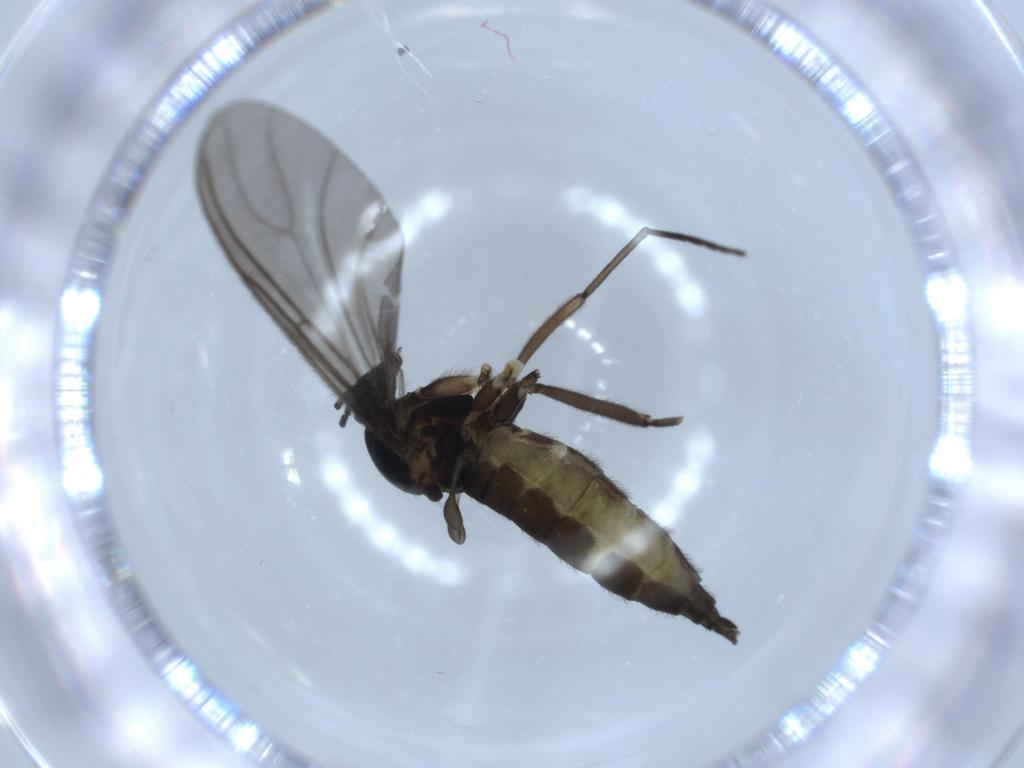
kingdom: Animalia
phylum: Arthropoda
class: Insecta
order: Diptera
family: Sciaridae
